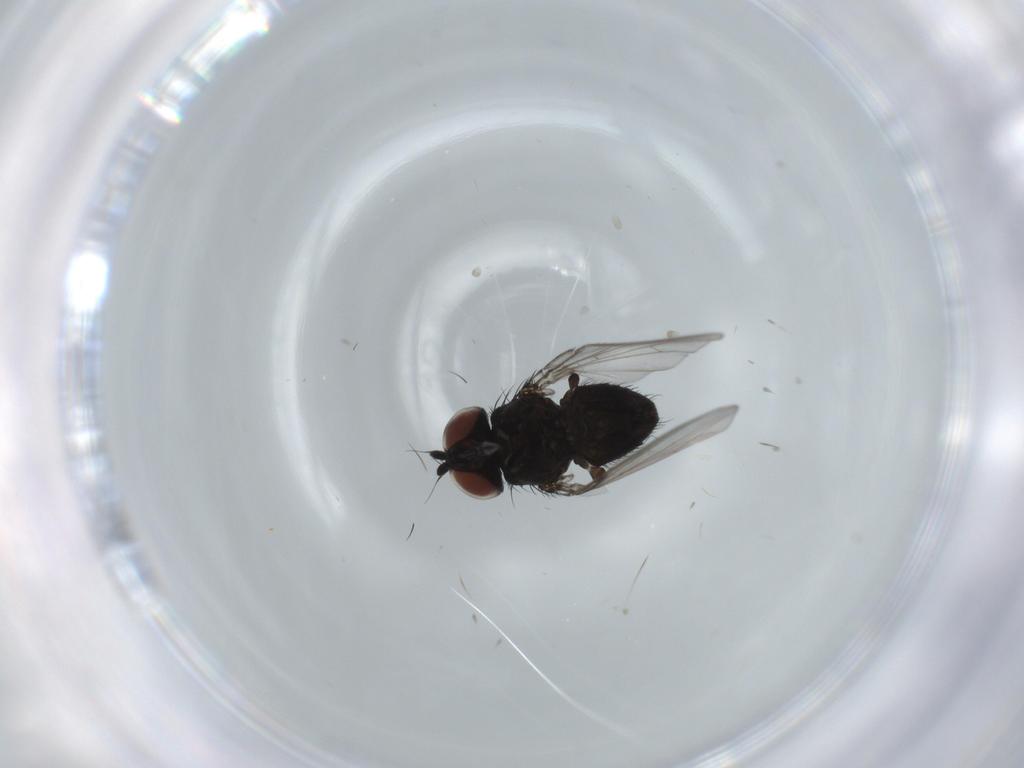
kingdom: Animalia
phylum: Arthropoda
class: Insecta
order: Diptera
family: Milichiidae
